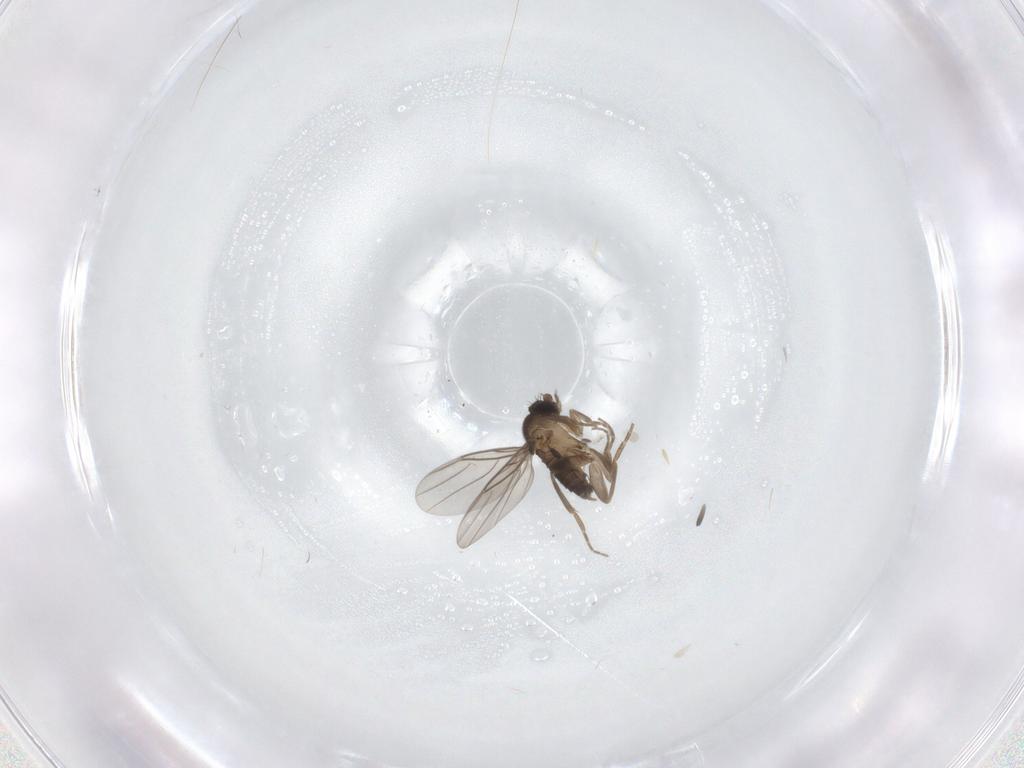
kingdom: Animalia
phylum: Arthropoda
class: Insecta
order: Diptera
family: Phoridae
